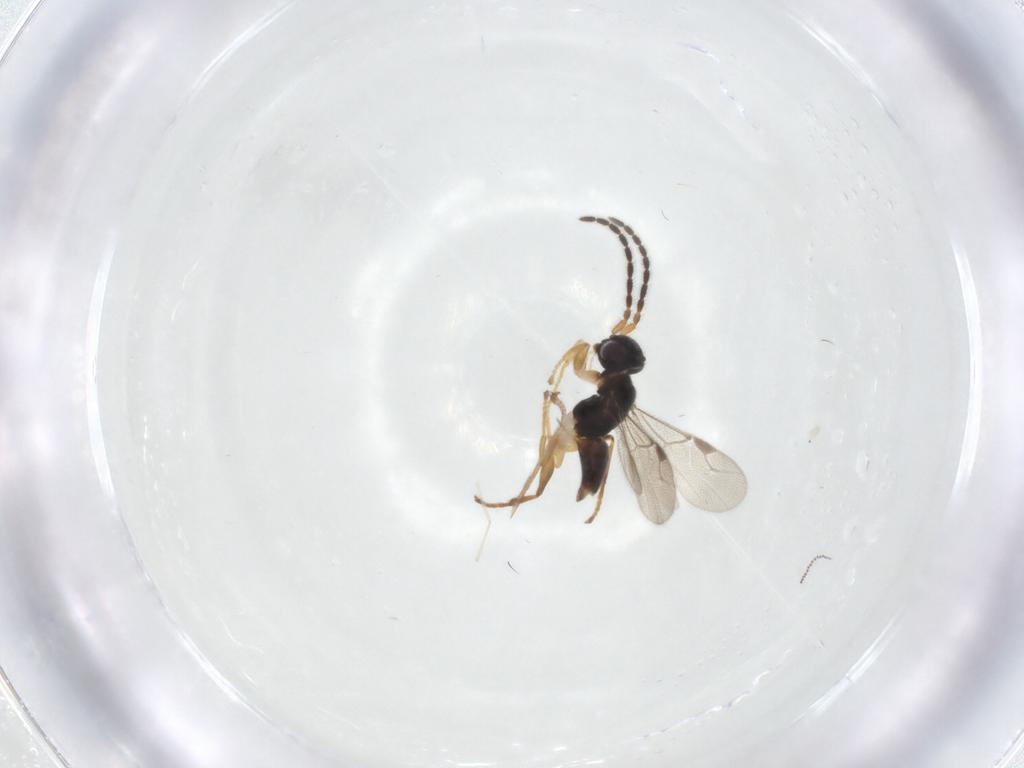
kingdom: Animalia
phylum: Arthropoda
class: Insecta
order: Hymenoptera
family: Dryinidae
